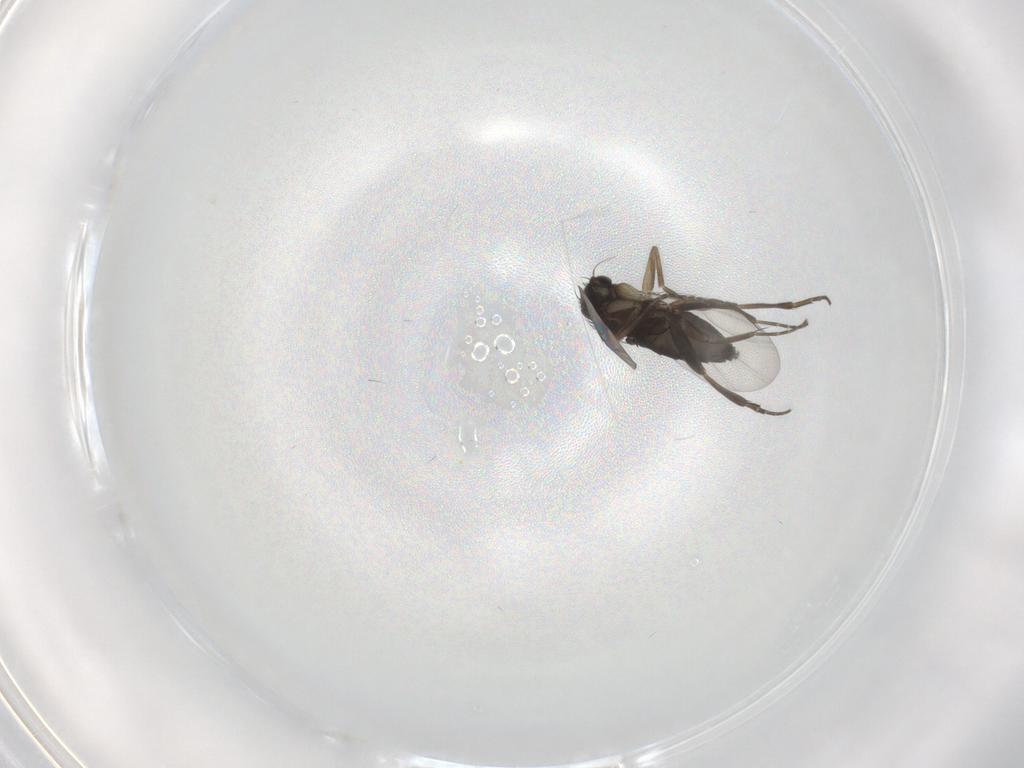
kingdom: Animalia
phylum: Arthropoda
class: Insecta
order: Diptera
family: Phoridae
